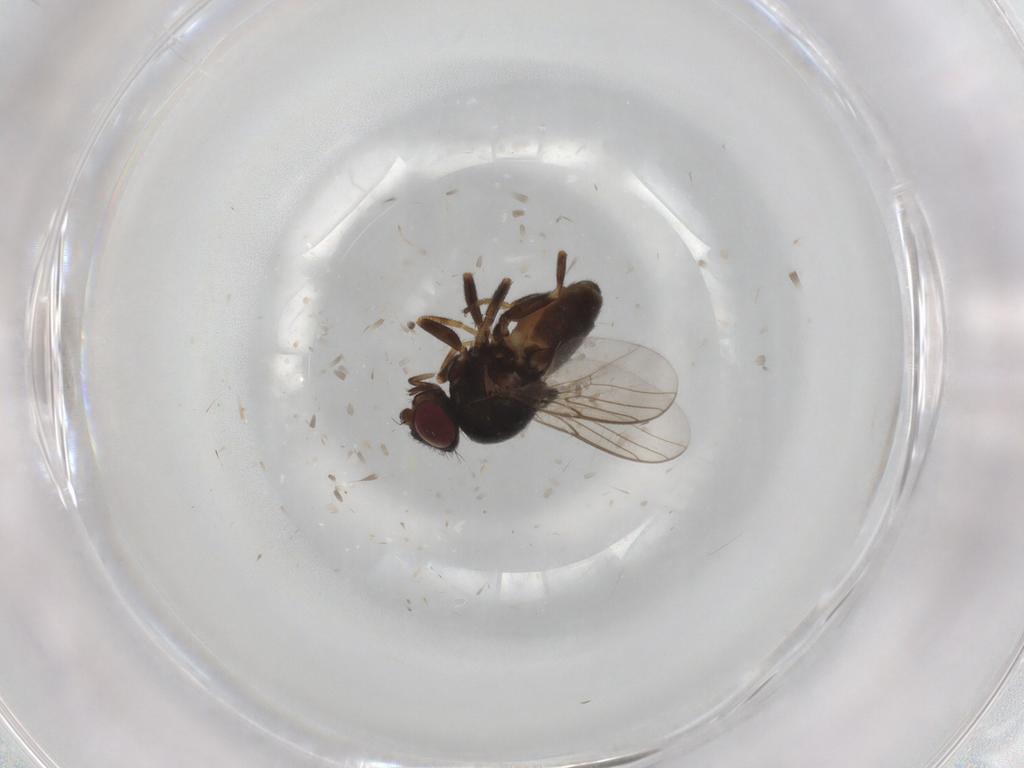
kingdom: Animalia
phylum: Arthropoda
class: Insecta
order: Diptera
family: Chloropidae
